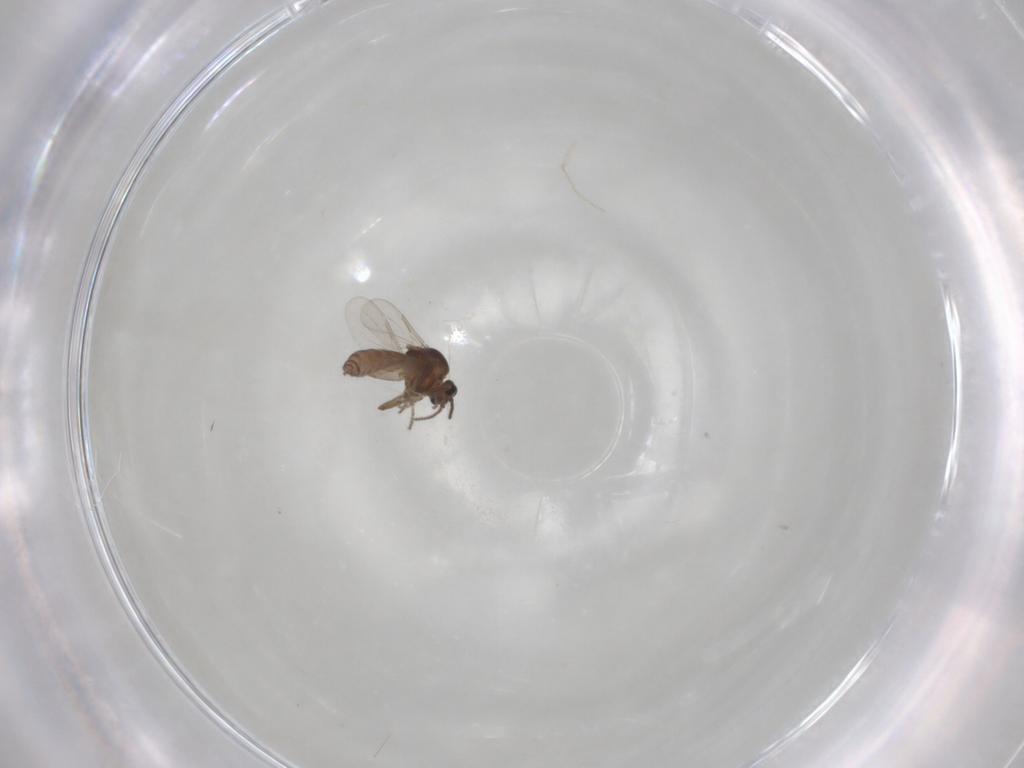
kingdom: Animalia
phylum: Arthropoda
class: Insecta
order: Diptera
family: Ceratopogonidae
